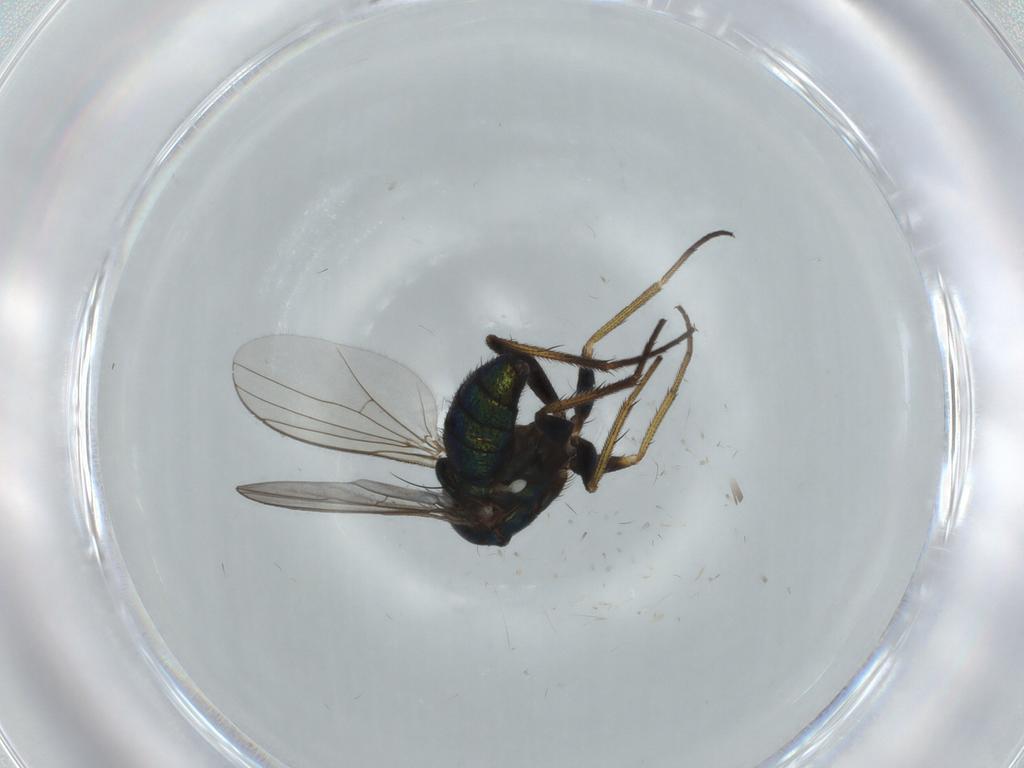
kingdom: Animalia
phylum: Arthropoda
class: Insecta
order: Diptera
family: Dolichopodidae
